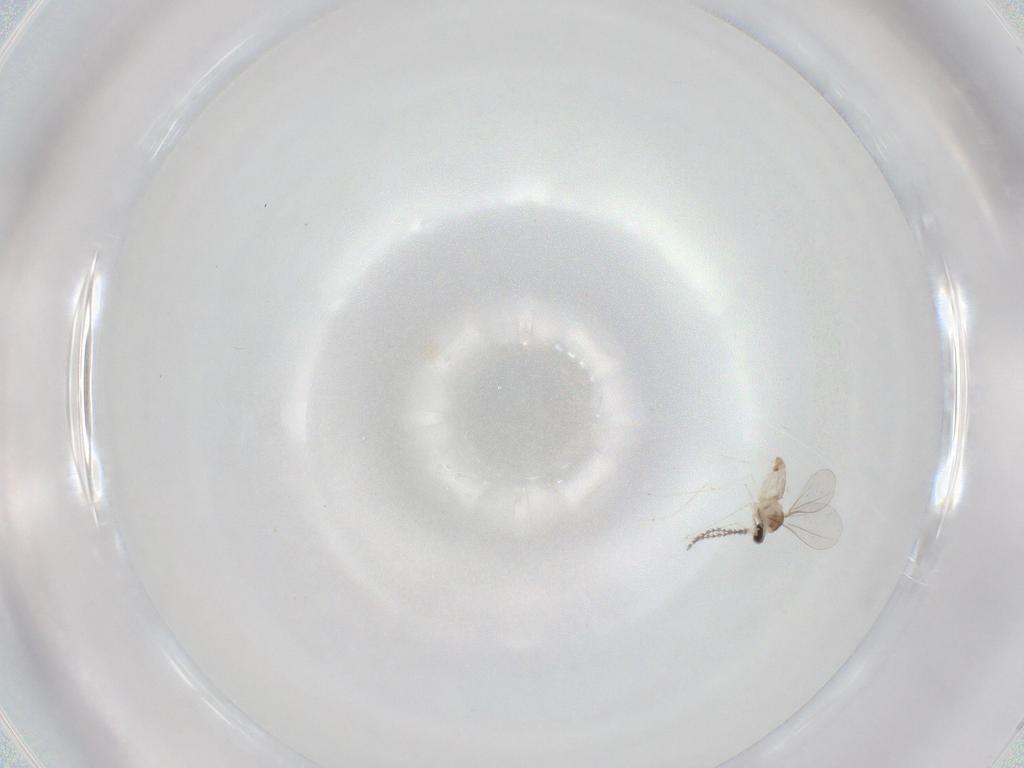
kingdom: Animalia
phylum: Arthropoda
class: Insecta
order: Diptera
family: Cecidomyiidae
